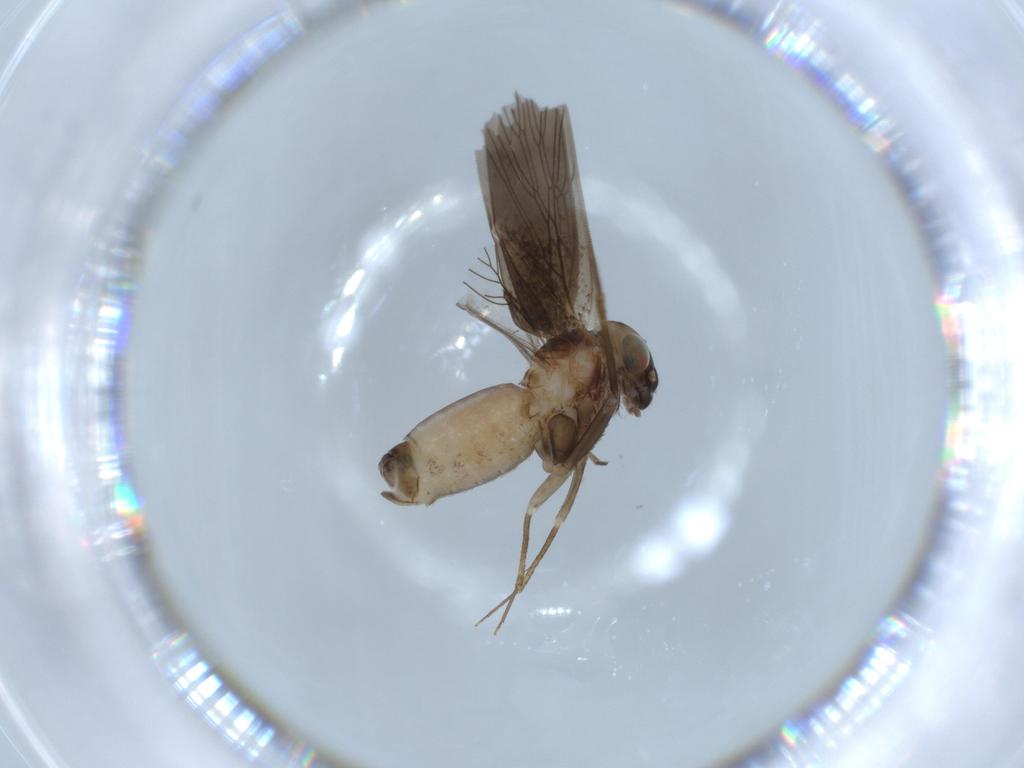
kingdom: Animalia
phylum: Arthropoda
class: Insecta
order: Psocodea
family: Lepidopsocidae
